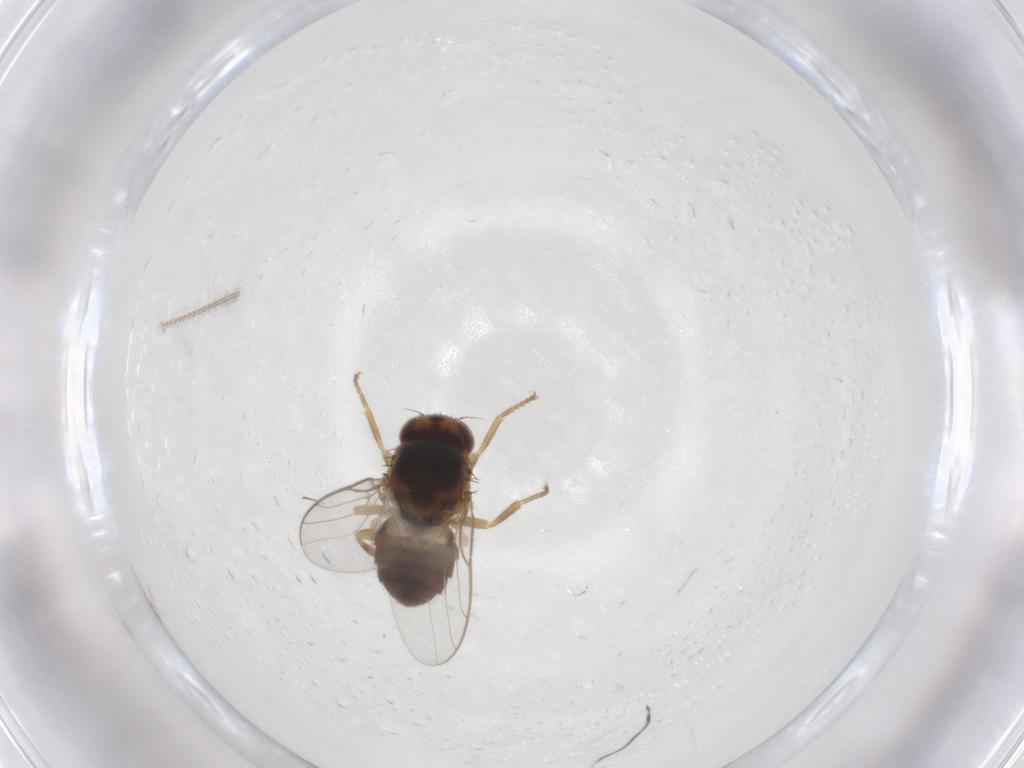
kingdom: Animalia
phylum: Arthropoda
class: Insecta
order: Diptera
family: Chloropidae
